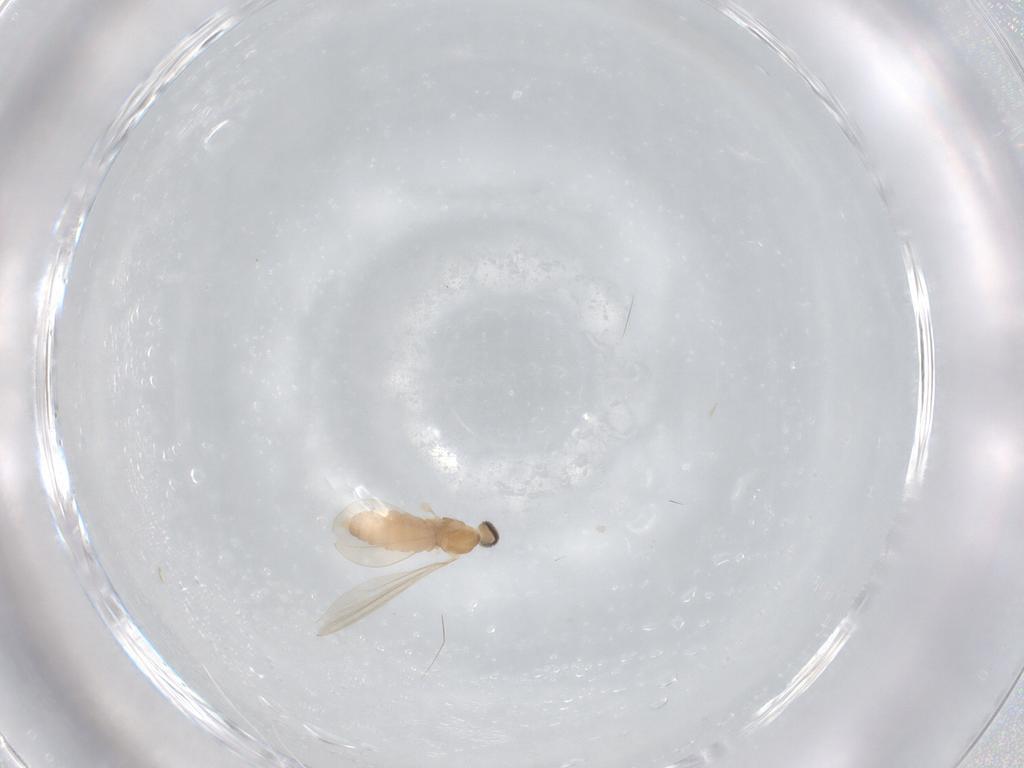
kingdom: Animalia
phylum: Arthropoda
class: Insecta
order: Diptera
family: Cecidomyiidae
